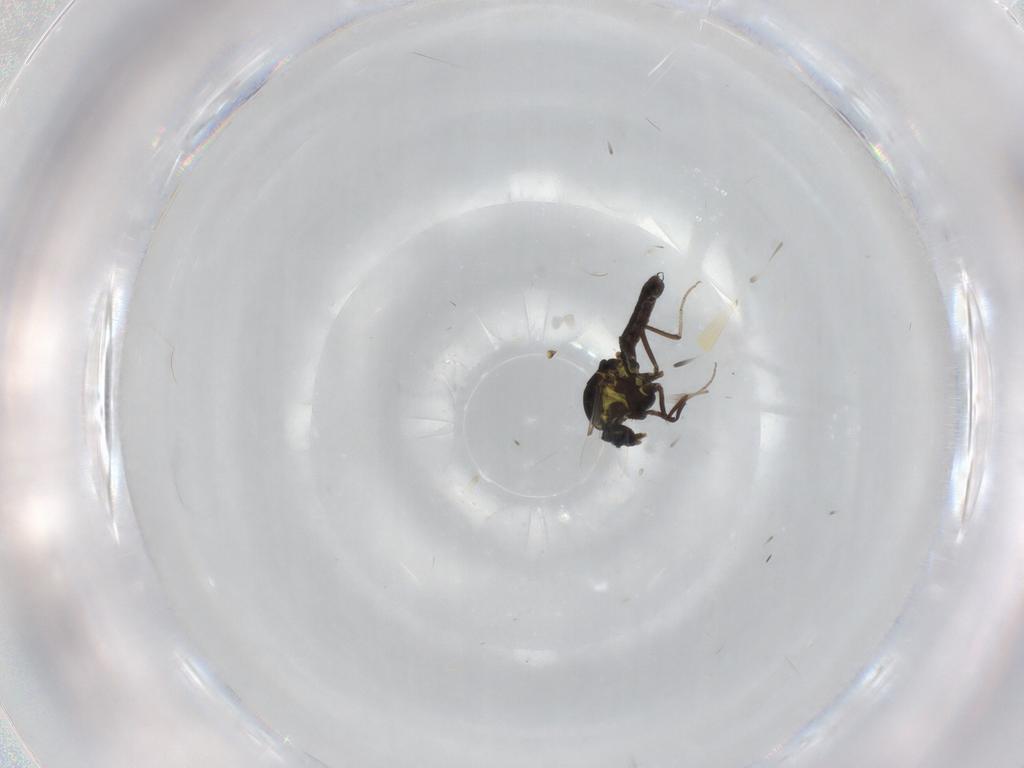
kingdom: Animalia
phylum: Arthropoda
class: Insecta
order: Diptera
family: Ceratopogonidae
